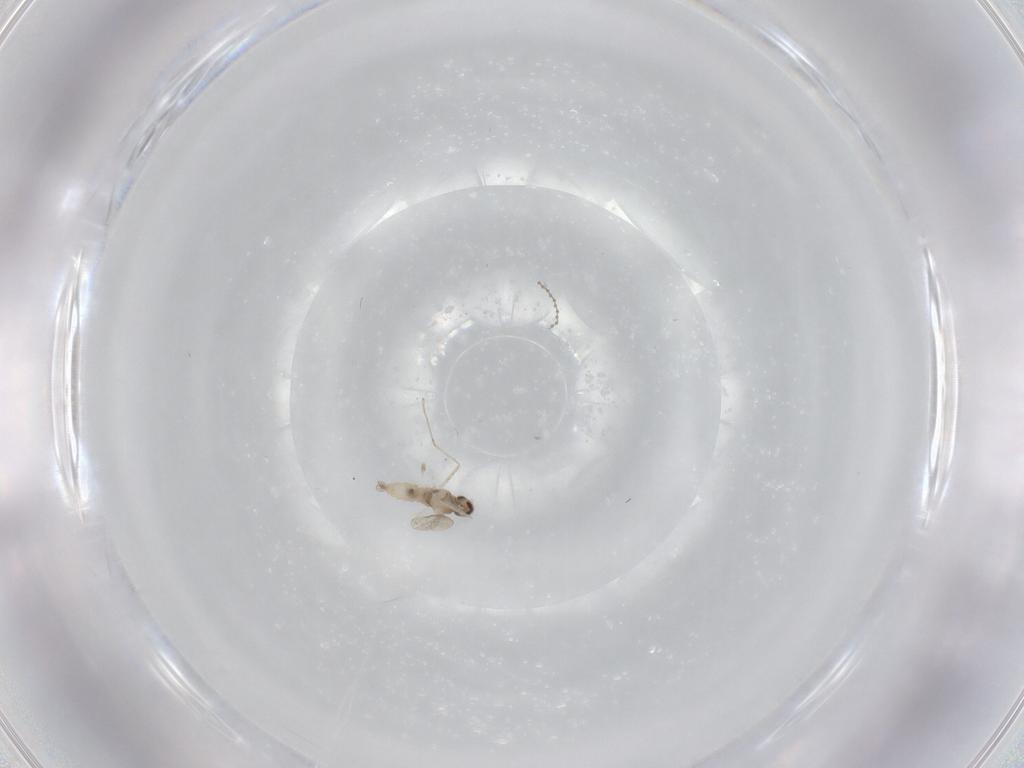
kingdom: Animalia
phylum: Arthropoda
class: Insecta
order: Diptera
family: Cecidomyiidae
